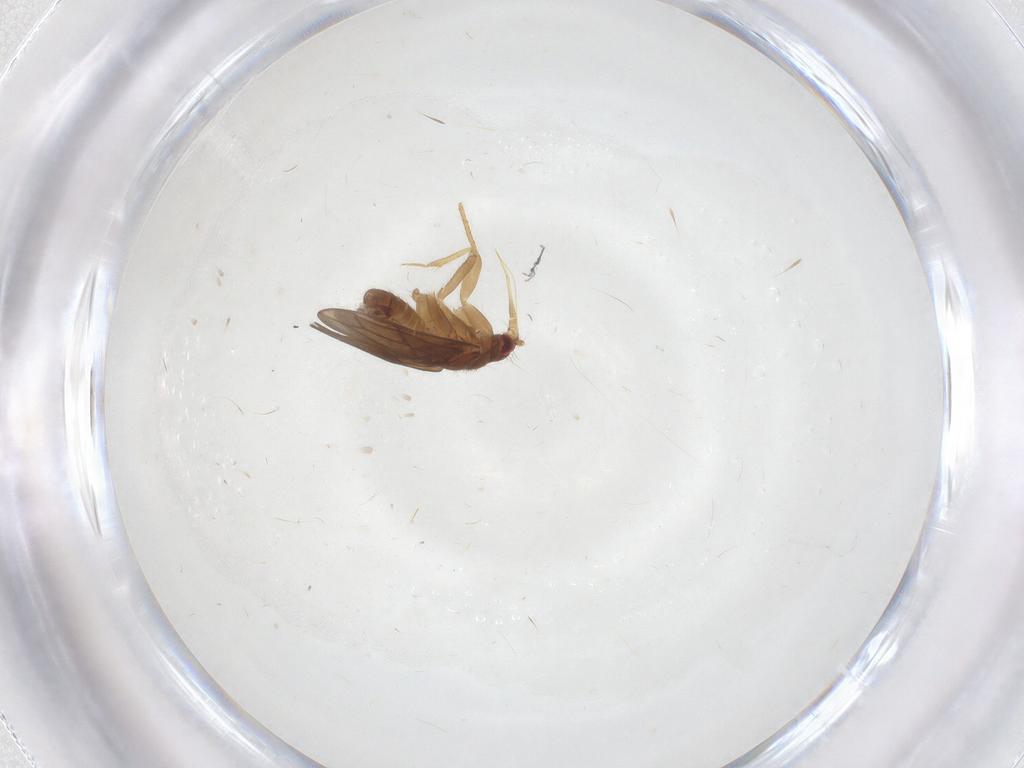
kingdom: Animalia
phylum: Arthropoda
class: Insecta
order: Hemiptera
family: Ceratocombidae
